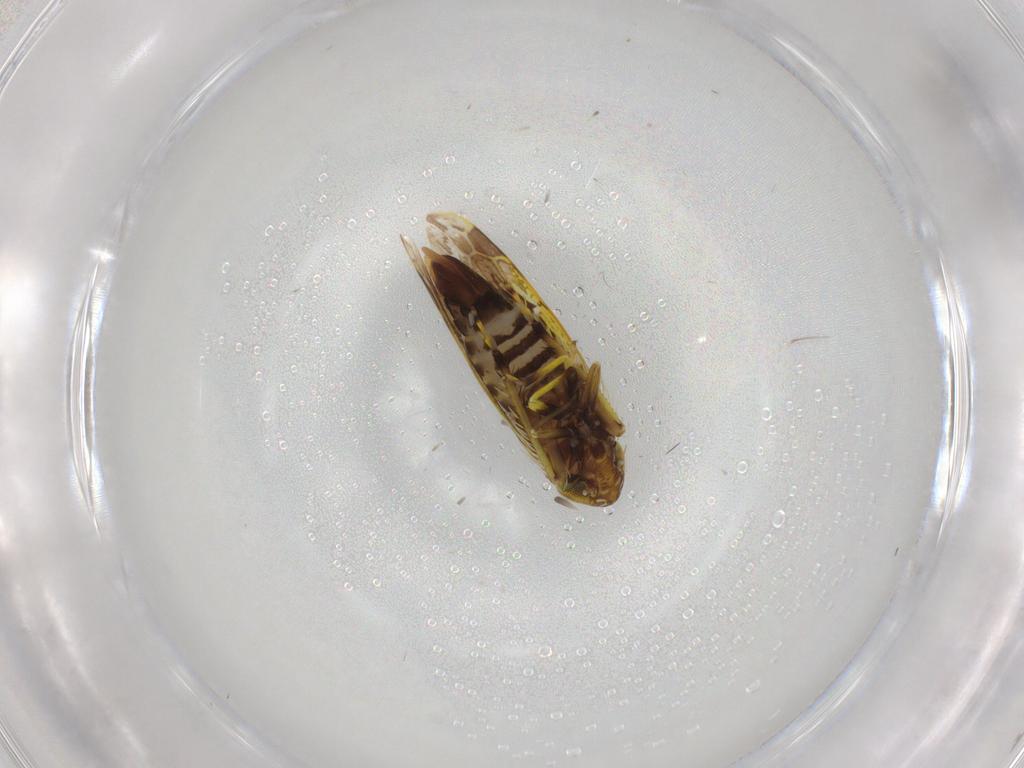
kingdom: Animalia
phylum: Arthropoda
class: Insecta
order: Hemiptera
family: Cicadellidae
